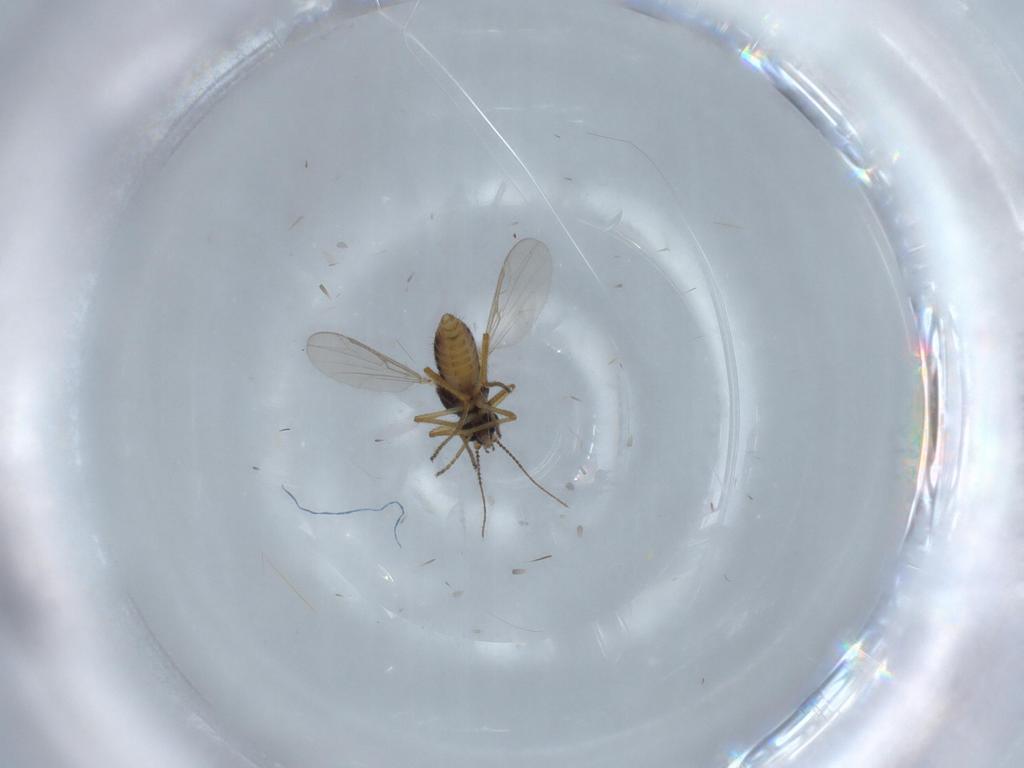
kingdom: Animalia
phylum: Arthropoda
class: Insecta
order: Diptera
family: Ceratopogonidae
